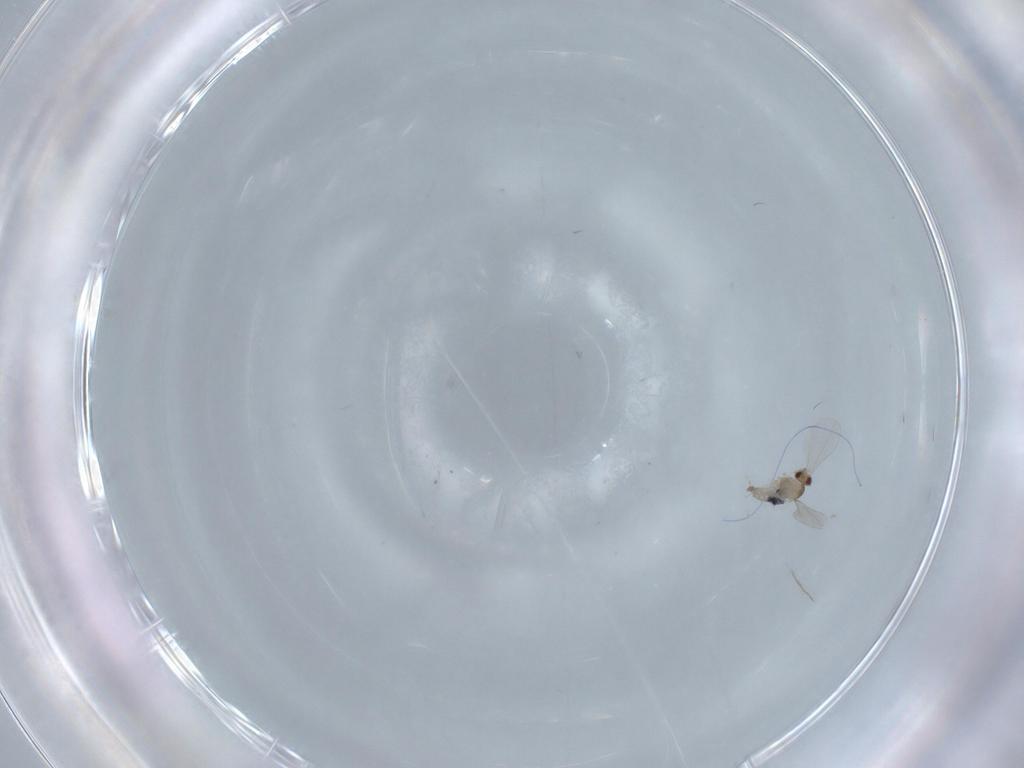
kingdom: Animalia
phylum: Arthropoda
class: Insecta
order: Diptera
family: Cecidomyiidae
